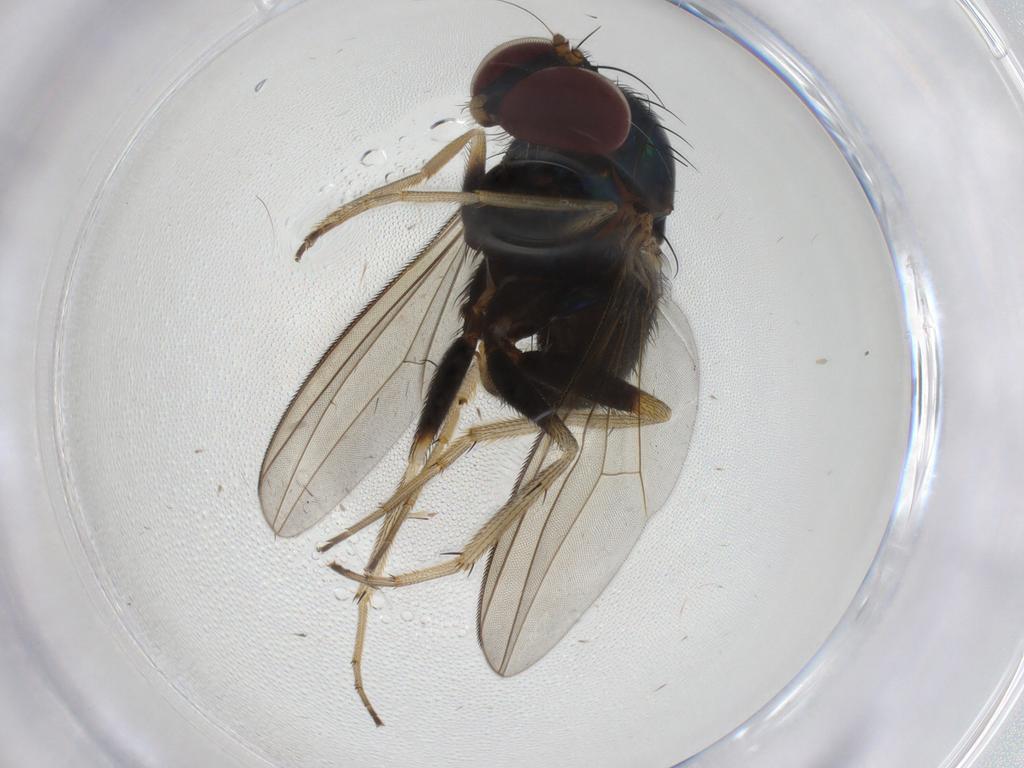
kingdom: Animalia
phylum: Arthropoda
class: Insecta
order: Diptera
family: Dolichopodidae
